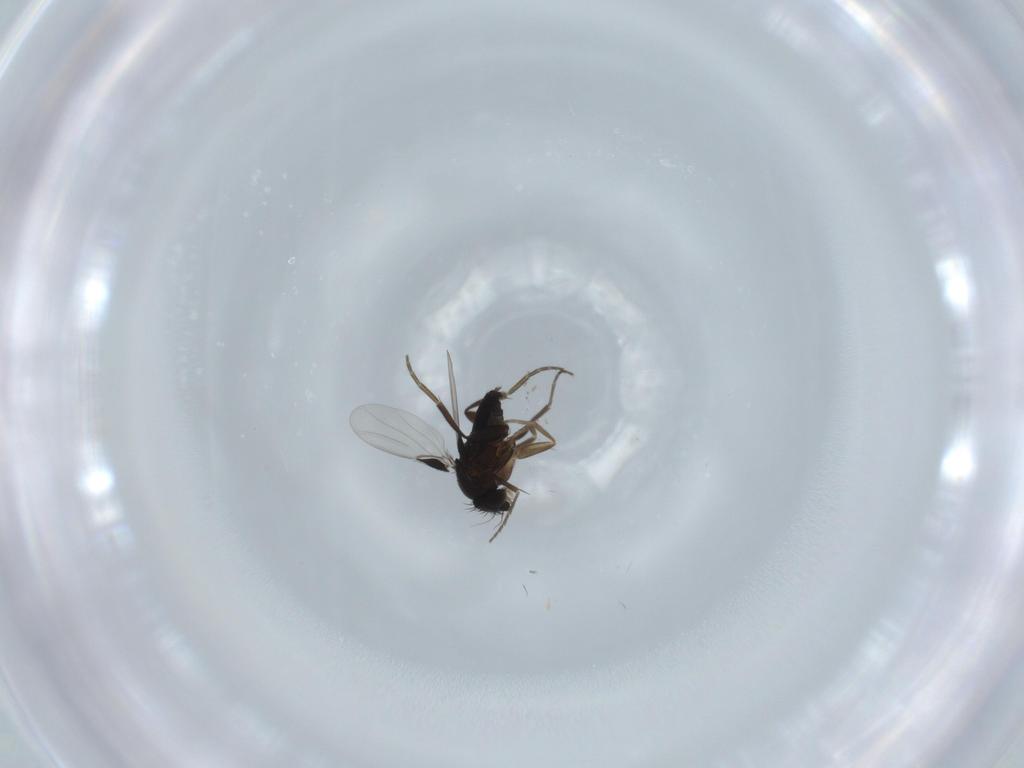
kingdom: Animalia
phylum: Arthropoda
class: Insecta
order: Diptera
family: Phoridae
